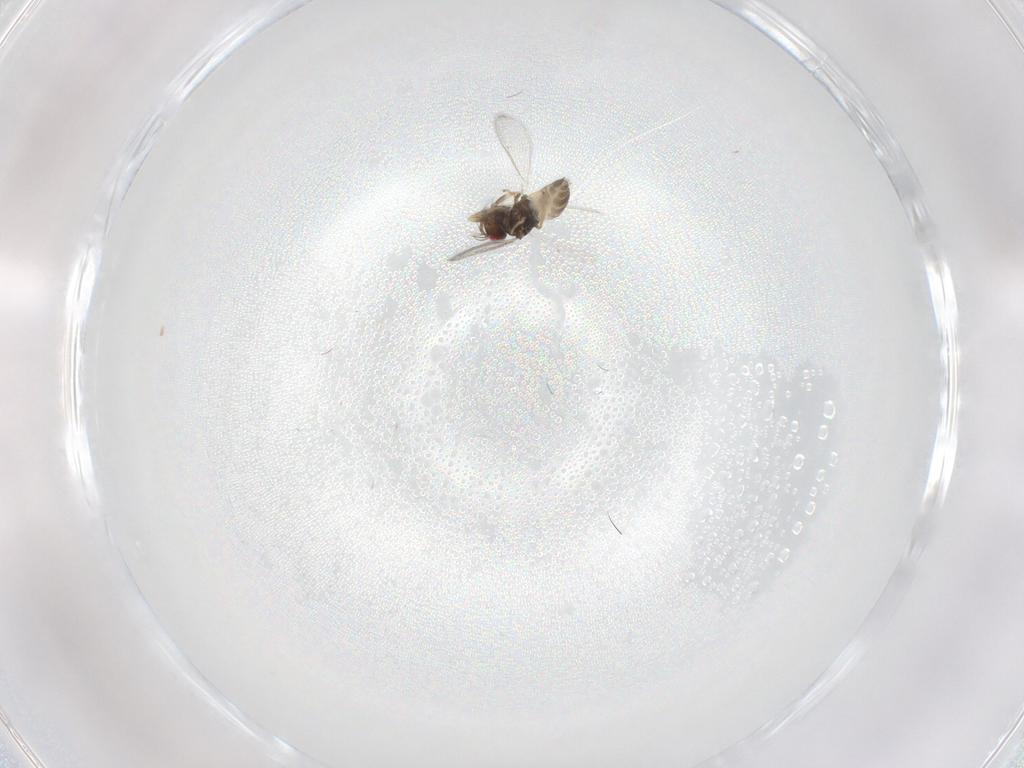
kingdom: Animalia
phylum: Arthropoda
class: Insecta
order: Hymenoptera
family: Eulophidae
